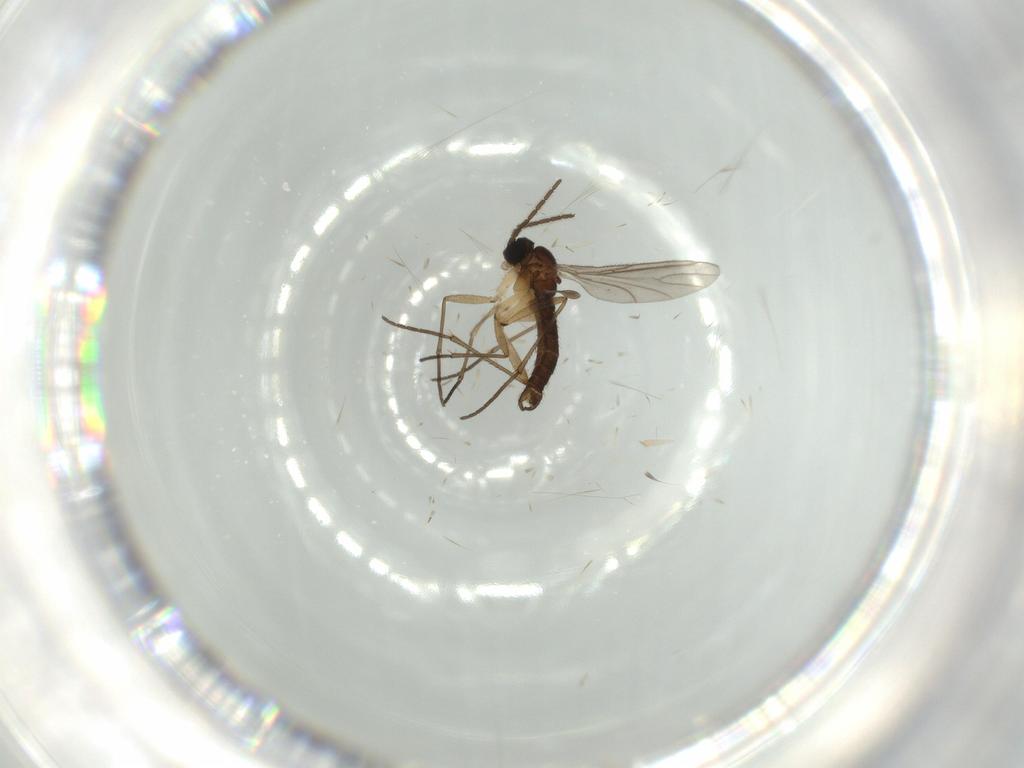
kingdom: Animalia
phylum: Arthropoda
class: Insecta
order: Diptera
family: Sciaridae
